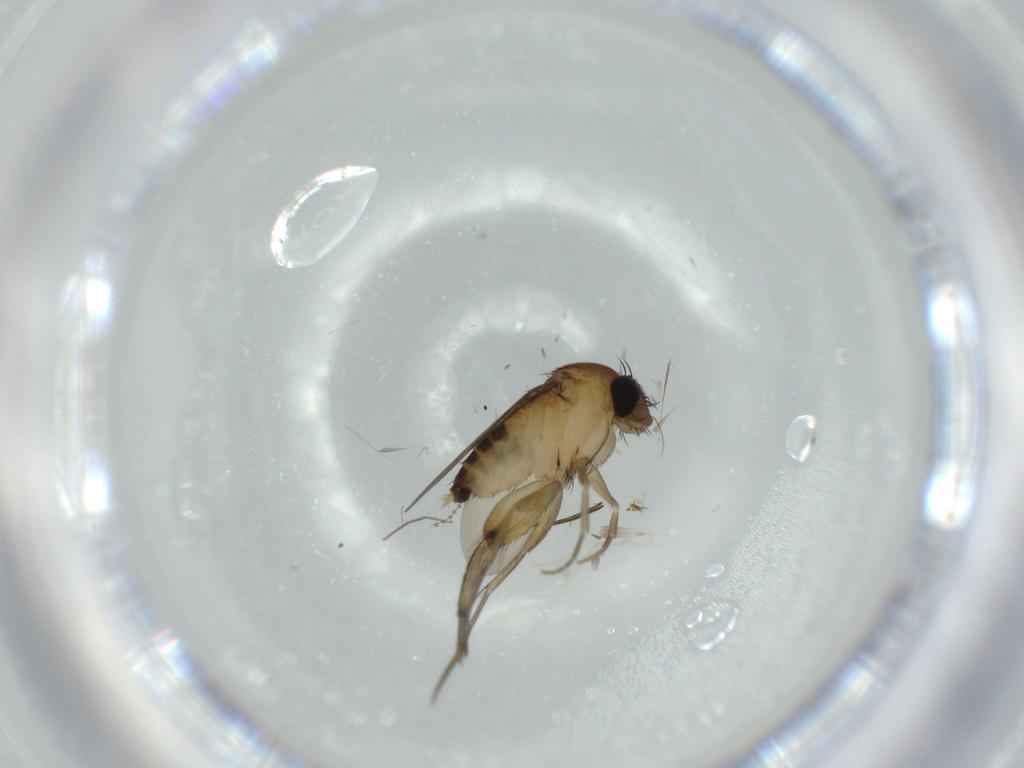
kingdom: Animalia
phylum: Arthropoda
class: Insecta
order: Diptera
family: Phoridae
